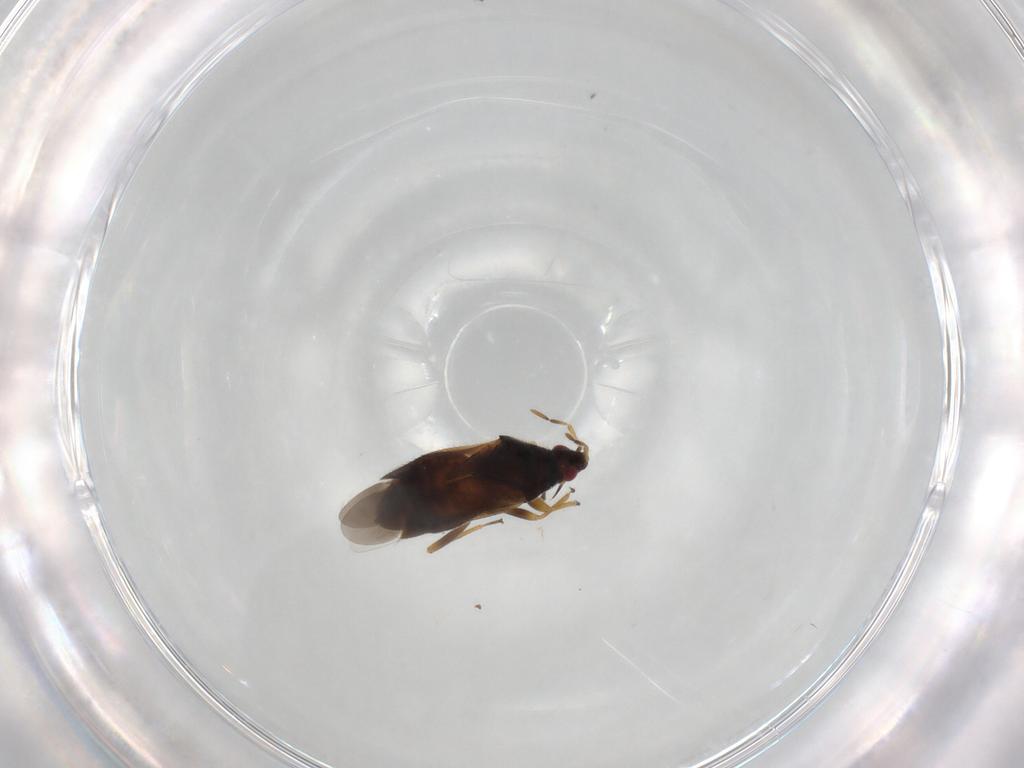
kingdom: Animalia
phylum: Arthropoda
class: Insecta
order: Hemiptera
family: Anthocoridae
